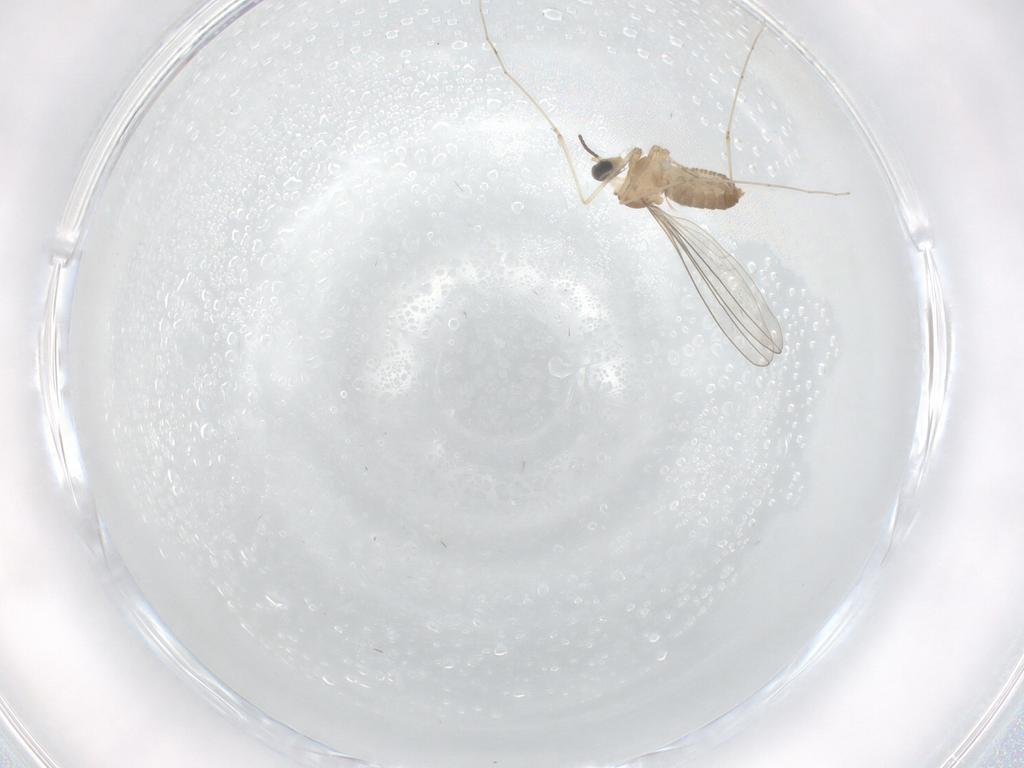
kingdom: Animalia
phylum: Arthropoda
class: Insecta
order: Diptera
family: Cecidomyiidae
